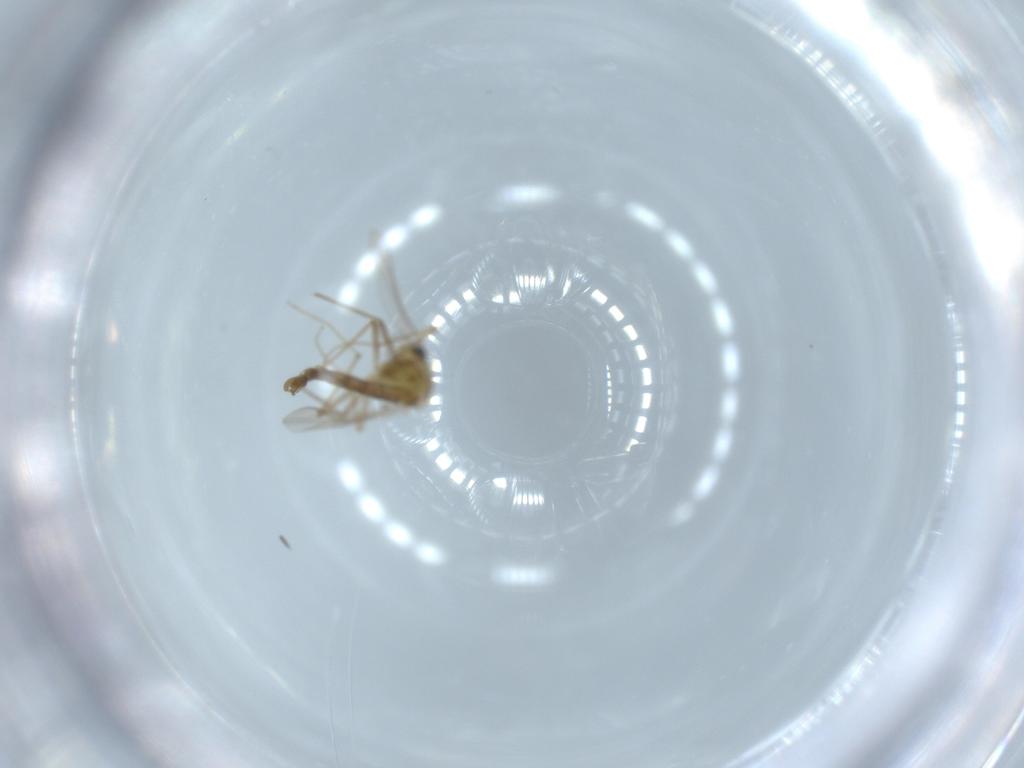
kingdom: Animalia
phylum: Arthropoda
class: Insecta
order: Diptera
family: Chironomidae
